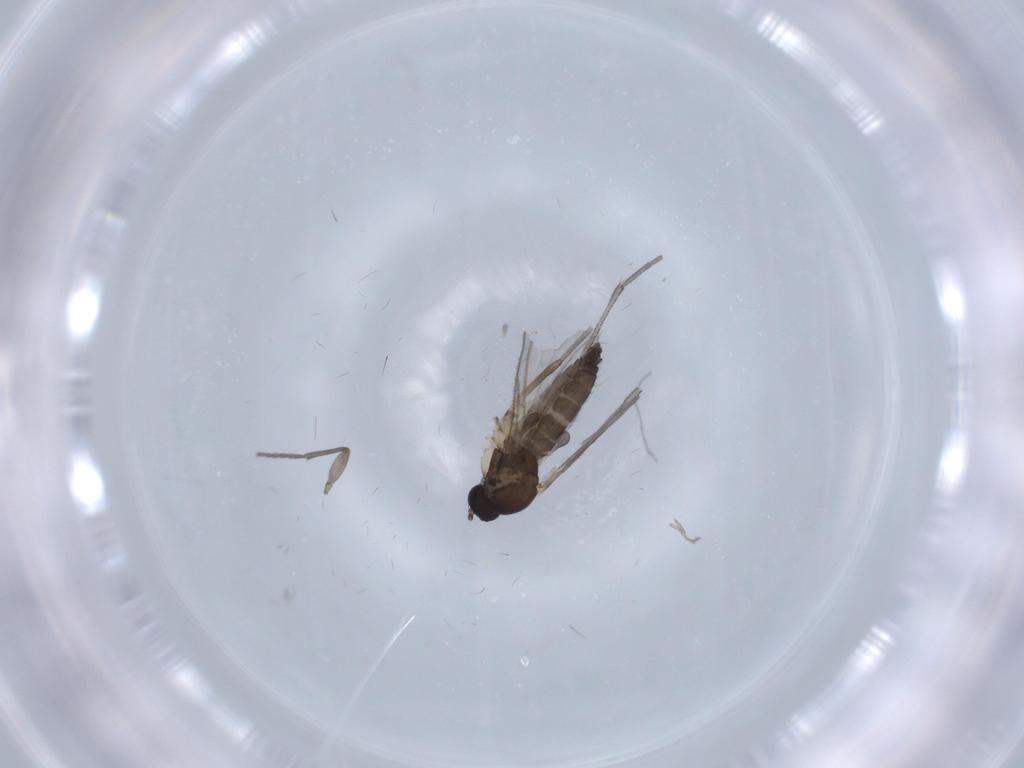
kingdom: Animalia
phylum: Arthropoda
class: Insecta
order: Diptera
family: Sciaridae
